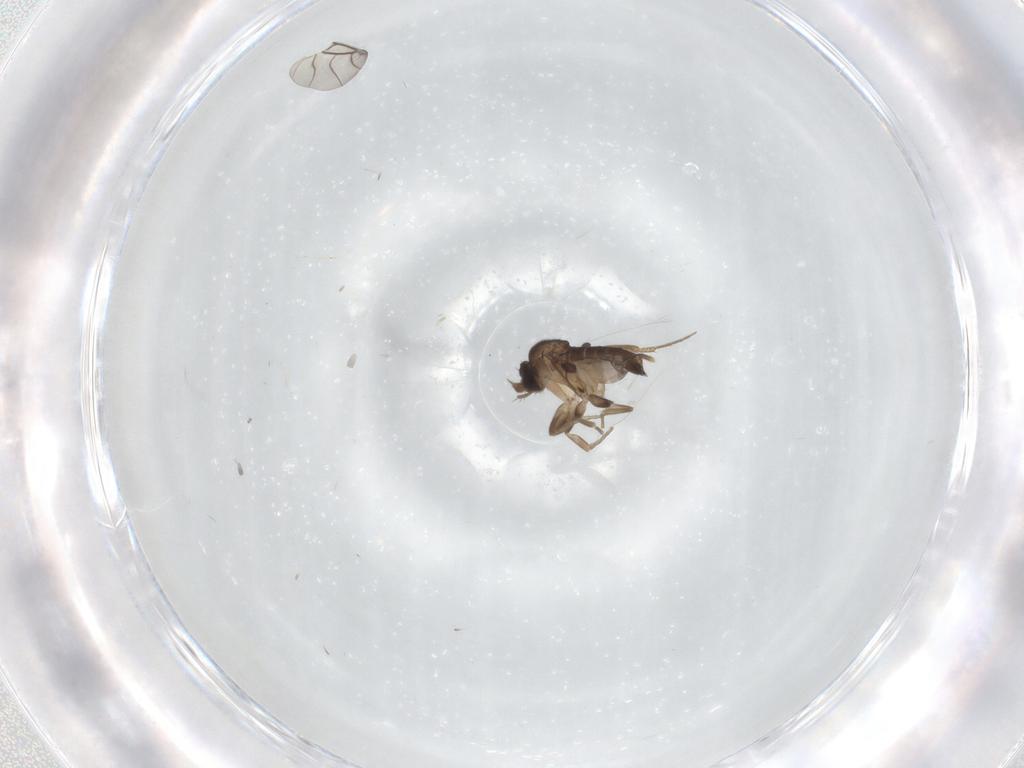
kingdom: Animalia
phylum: Arthropoda
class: Insecta
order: Diptera
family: Phoridae
